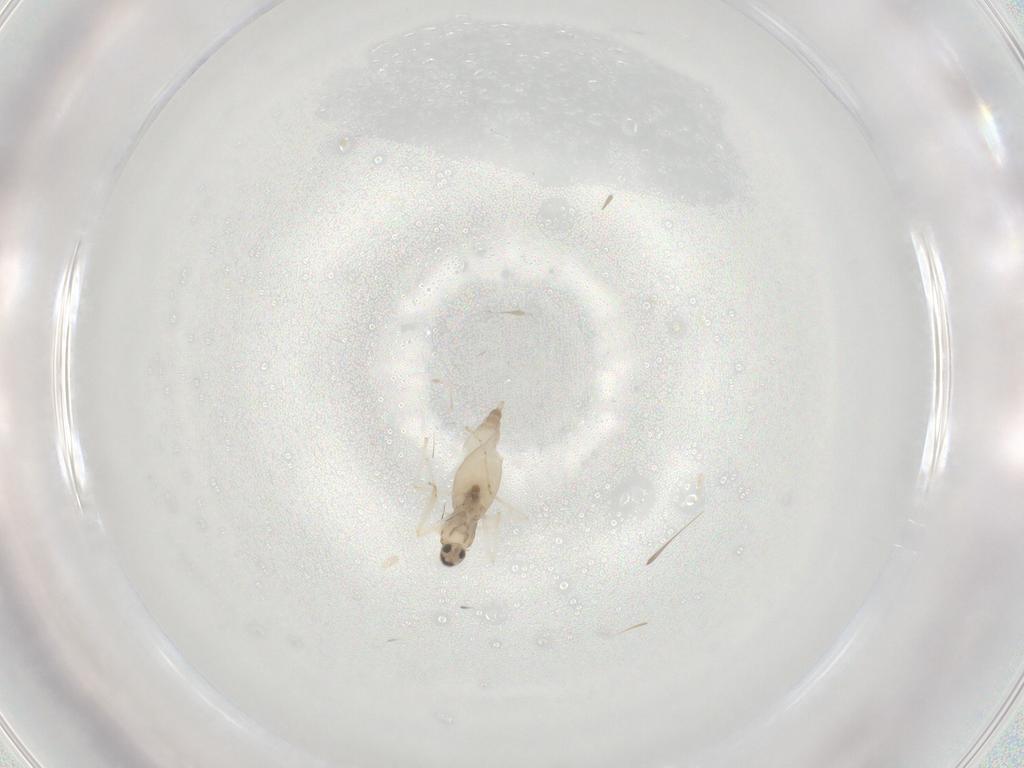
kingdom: Animalia
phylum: Arthropoda
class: Insecta
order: Diptera
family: Cecidomyiidae
